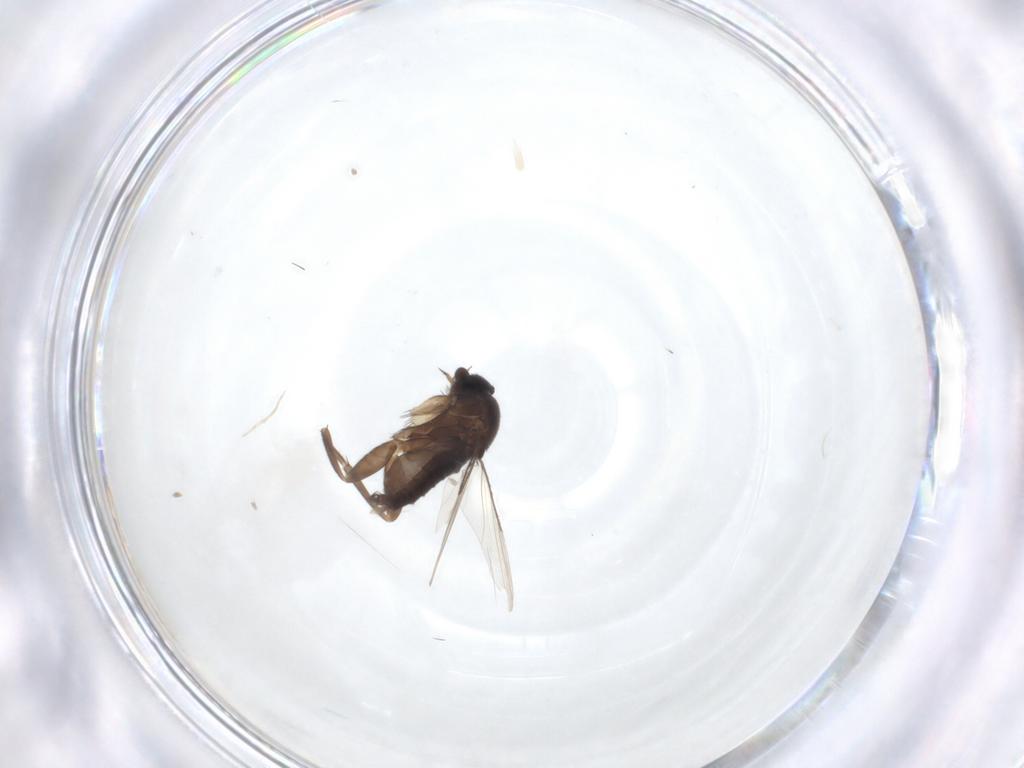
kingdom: Animalia
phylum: Arthropoda
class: Insecta
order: Diptera
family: Phoridae
